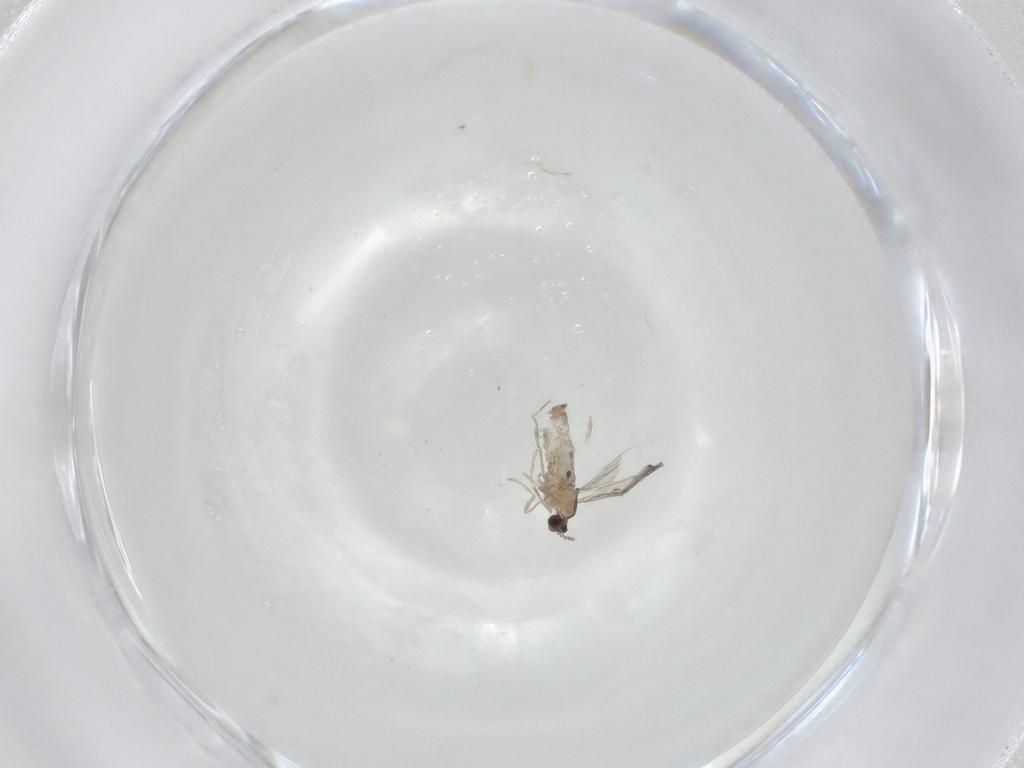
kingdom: Animalia
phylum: Arthropoda
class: Insecta
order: Diptera
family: Cecidomyiidae
